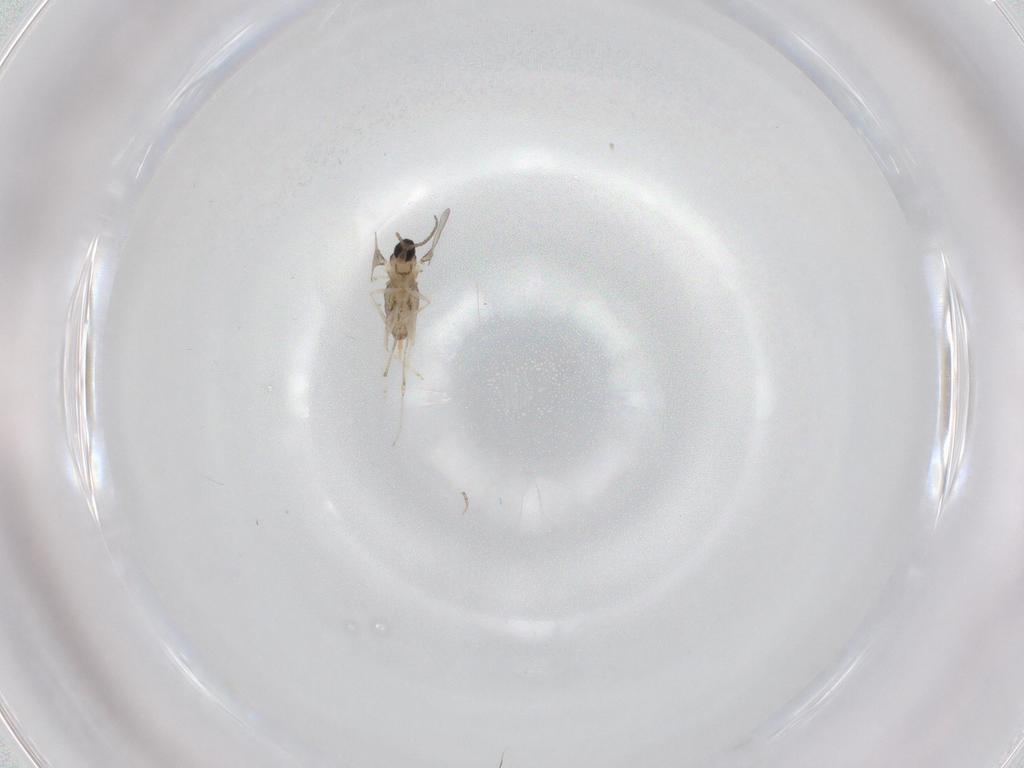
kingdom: Animalia
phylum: Arthropoda
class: Insecta
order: Diptera
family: Cecidomyiidae
